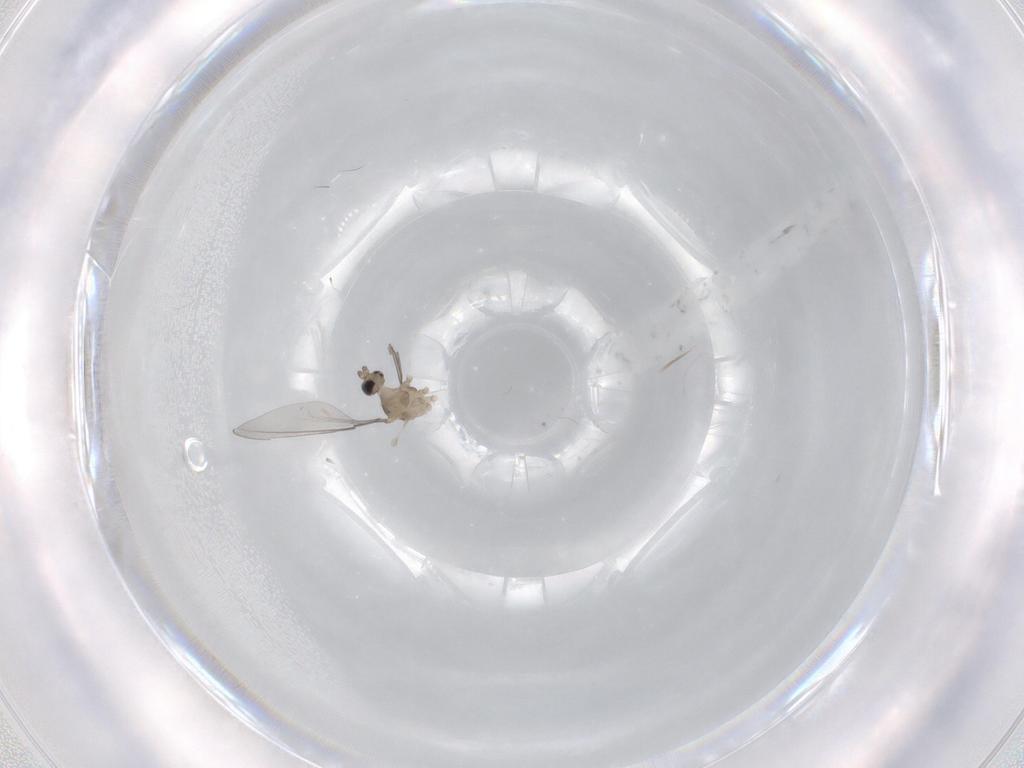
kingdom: Animalia
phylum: Arthropoda
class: Insecta
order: Diptera
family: Cecidomyiidae
